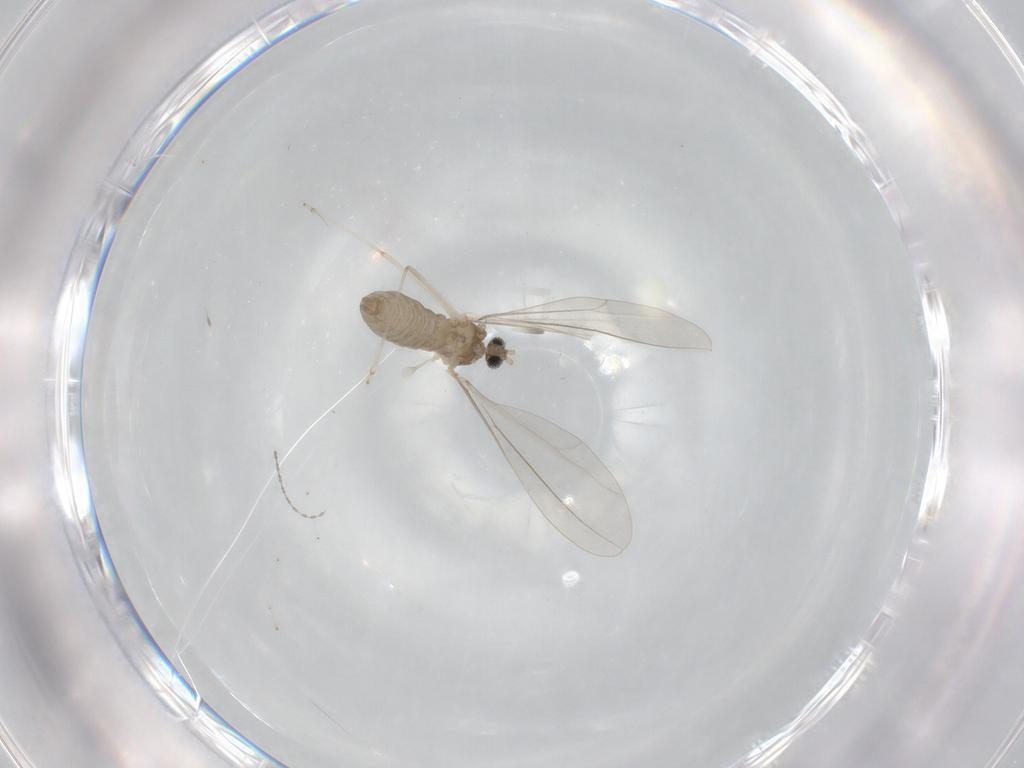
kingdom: Animalia
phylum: Arthropoda
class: Insecta
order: Diptera
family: Cecidomyiidae
